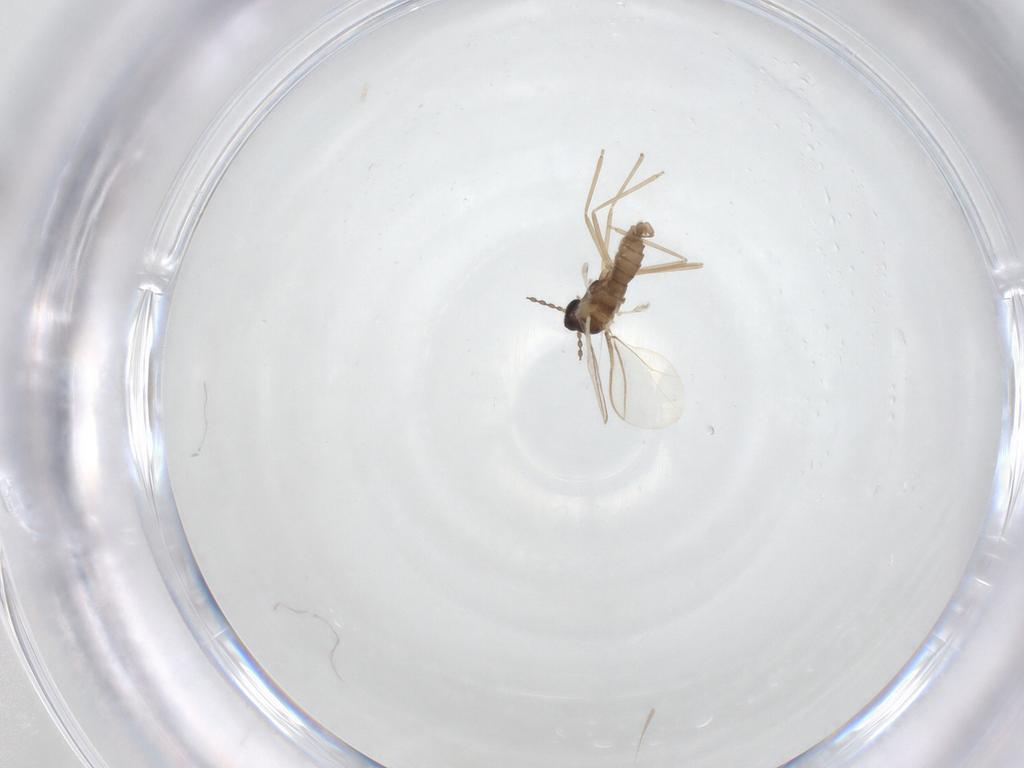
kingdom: Animalia
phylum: Arthropoda
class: Insecta
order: Diptera
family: Cecidomyiidae
